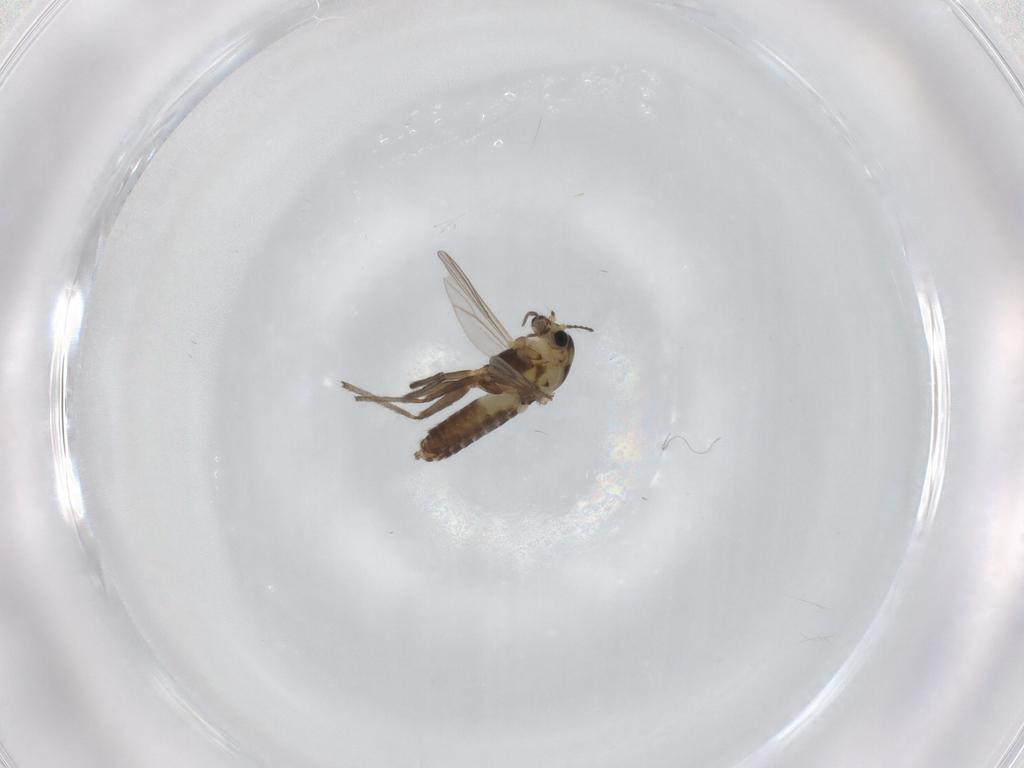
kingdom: Animalia
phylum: Arthropoda
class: Insecta
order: Diptera
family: Chironomidae
